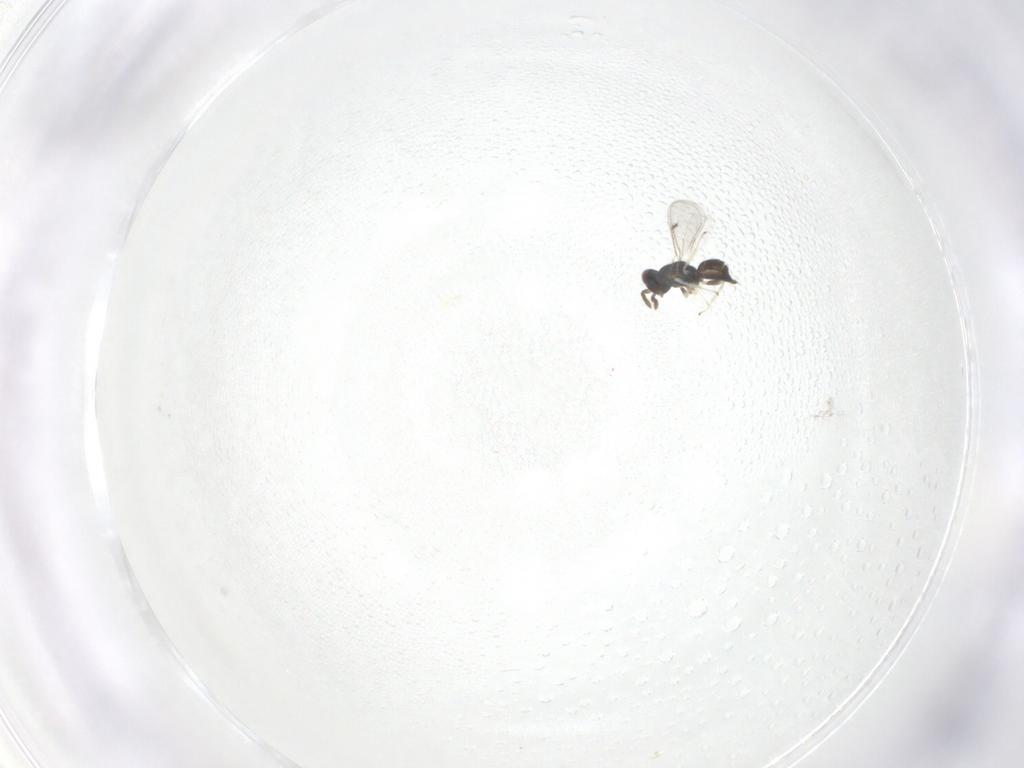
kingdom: Animalia
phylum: Arthropoda
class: Insecta
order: Hymenoptera
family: Eulophidae
